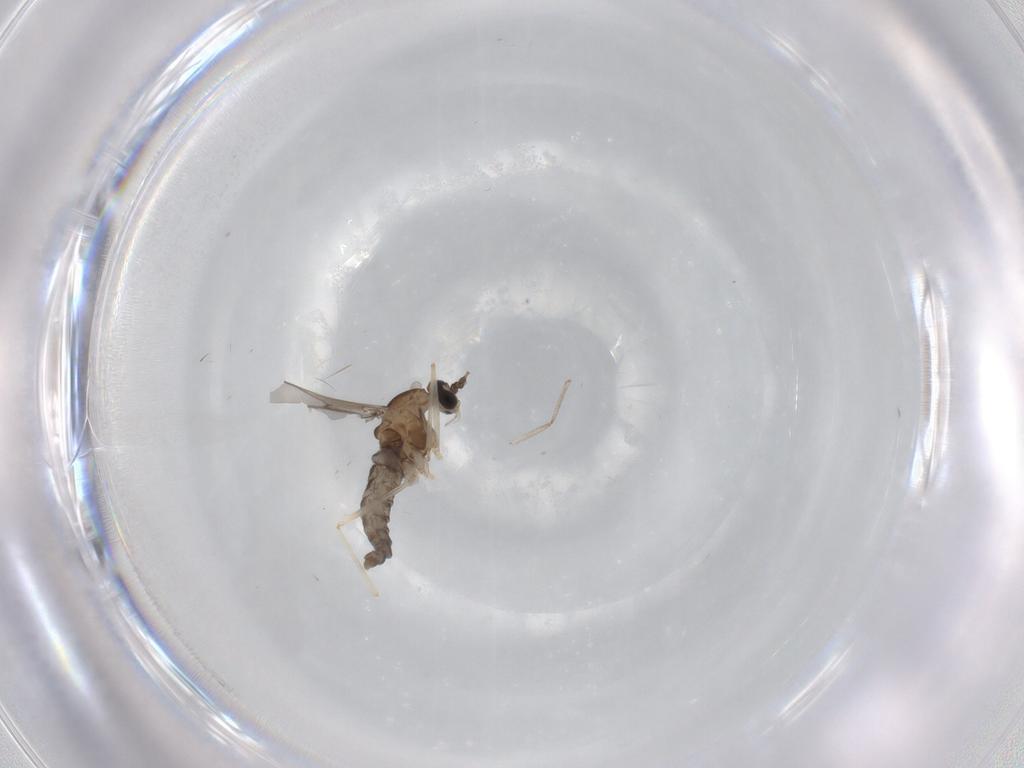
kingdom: Animalia
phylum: Arthropoda
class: Insecta
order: Diptera
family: Cecidomyiidae
